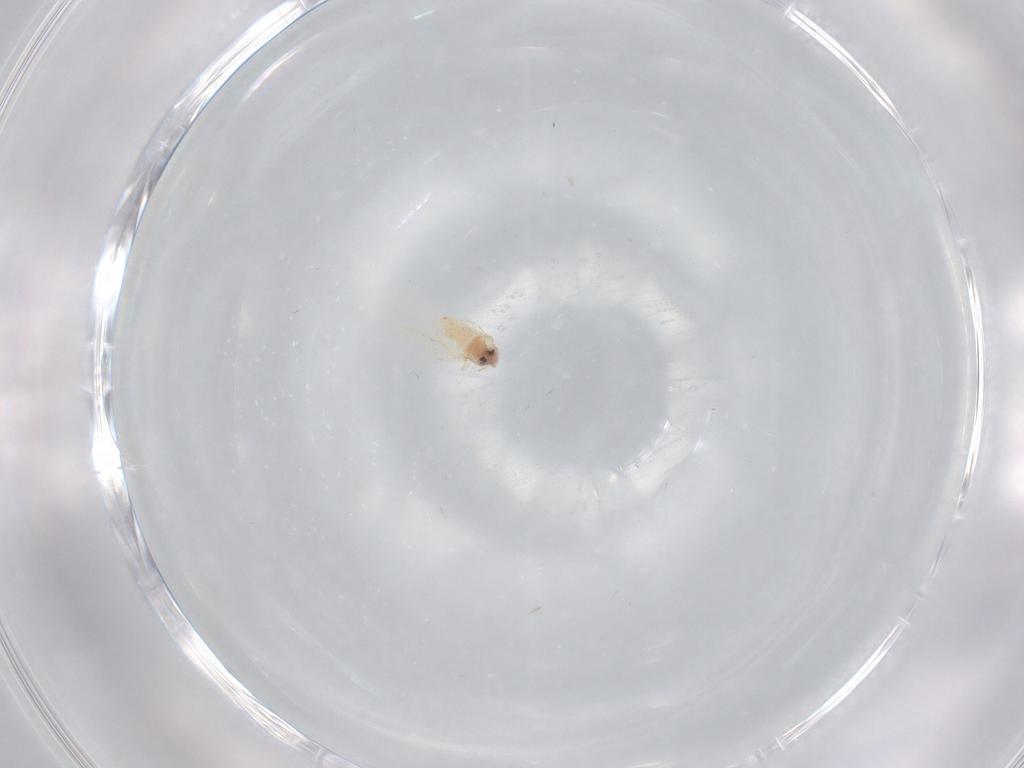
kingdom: Animalia
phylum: Arthropoda
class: Insecta
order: Hemiptera
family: Aleyrodidae
